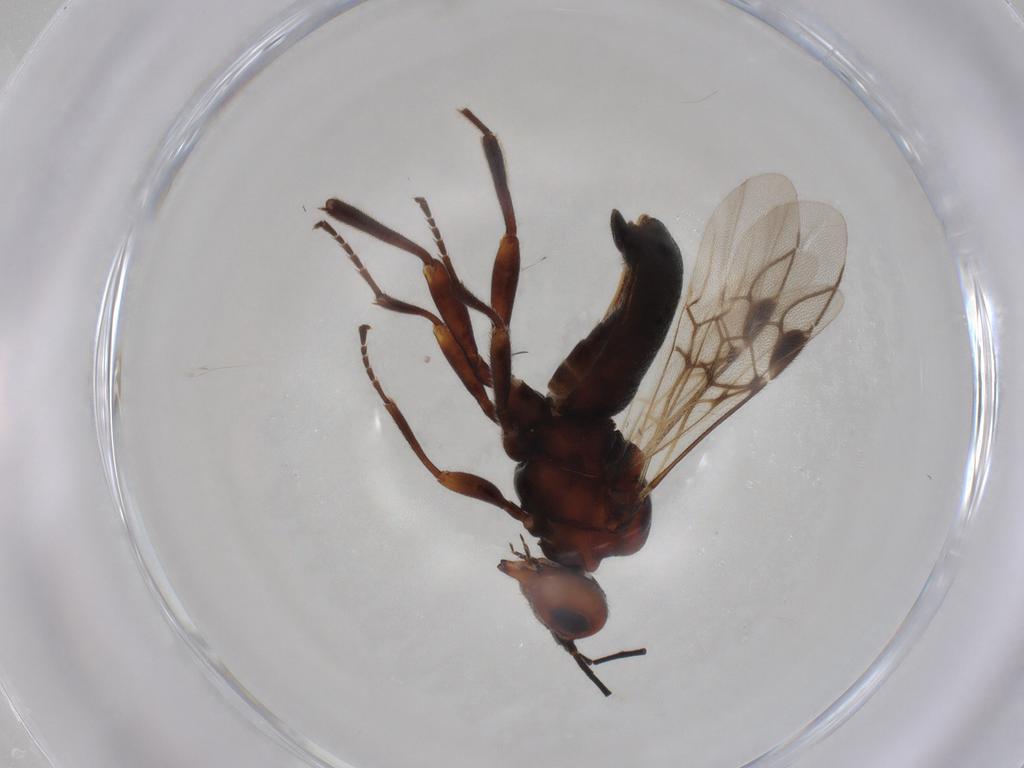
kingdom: Animalia
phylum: Arthropoda
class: Insecta
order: Hymenoptera
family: Braconidae
